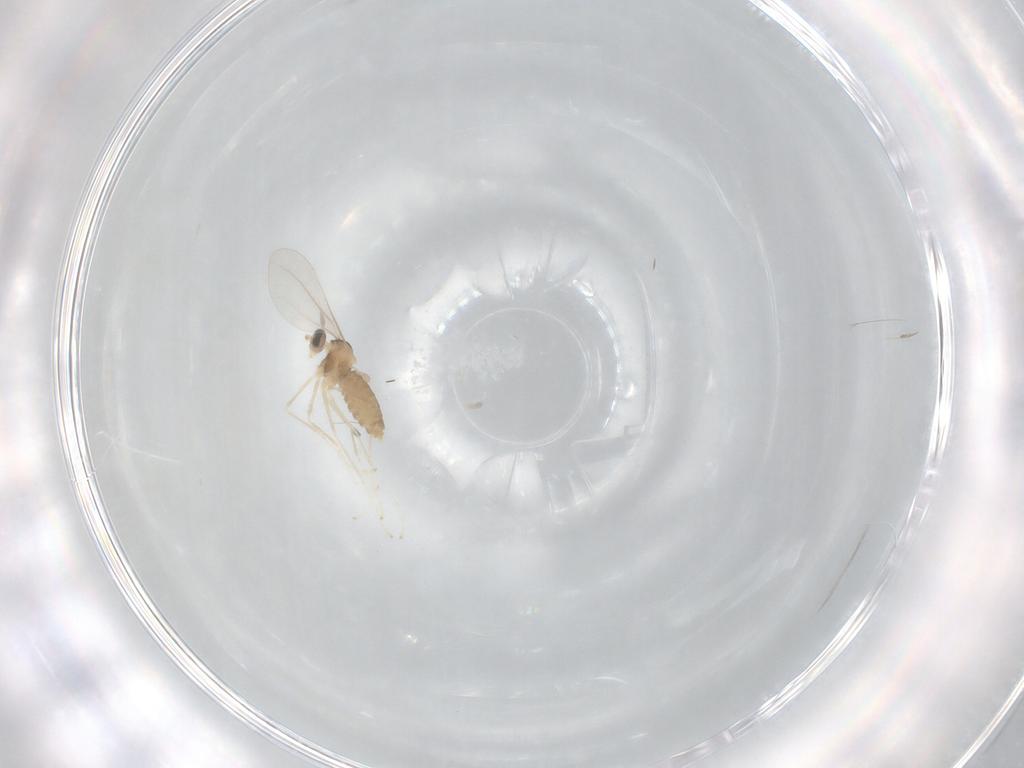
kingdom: Animalia
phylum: Arthropoda
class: Insecta
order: Diptera
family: Cecidomyiidae
